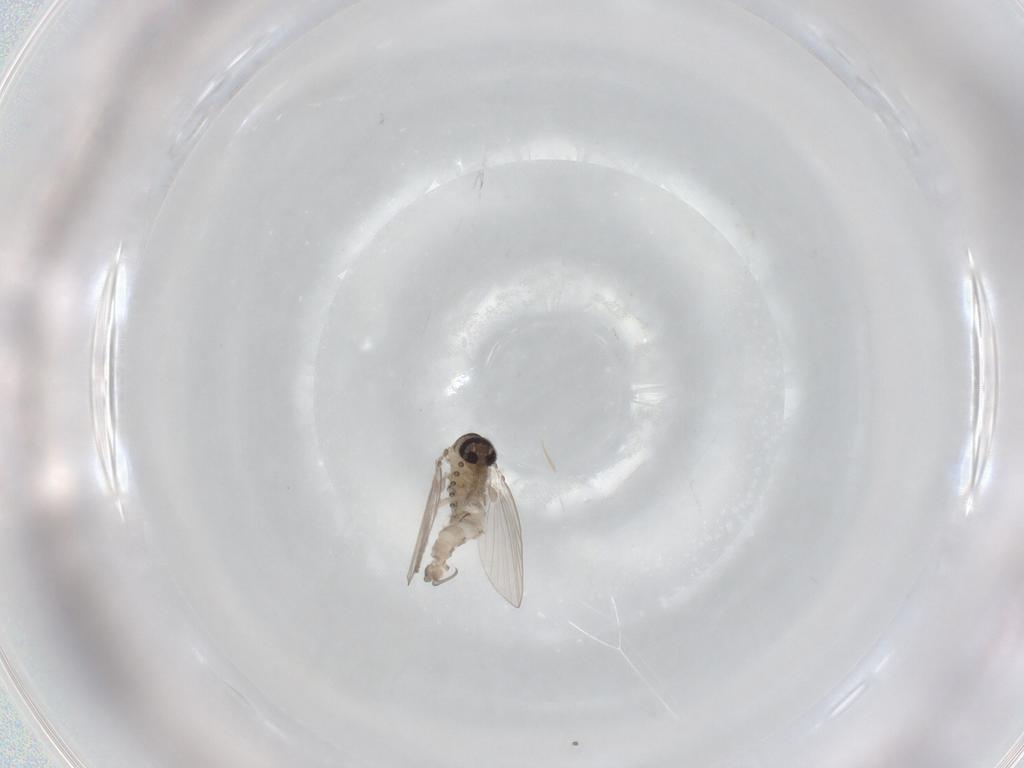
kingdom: Animalia
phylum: Arthropoda
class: Insecta
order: Diptera
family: Psychodidae
